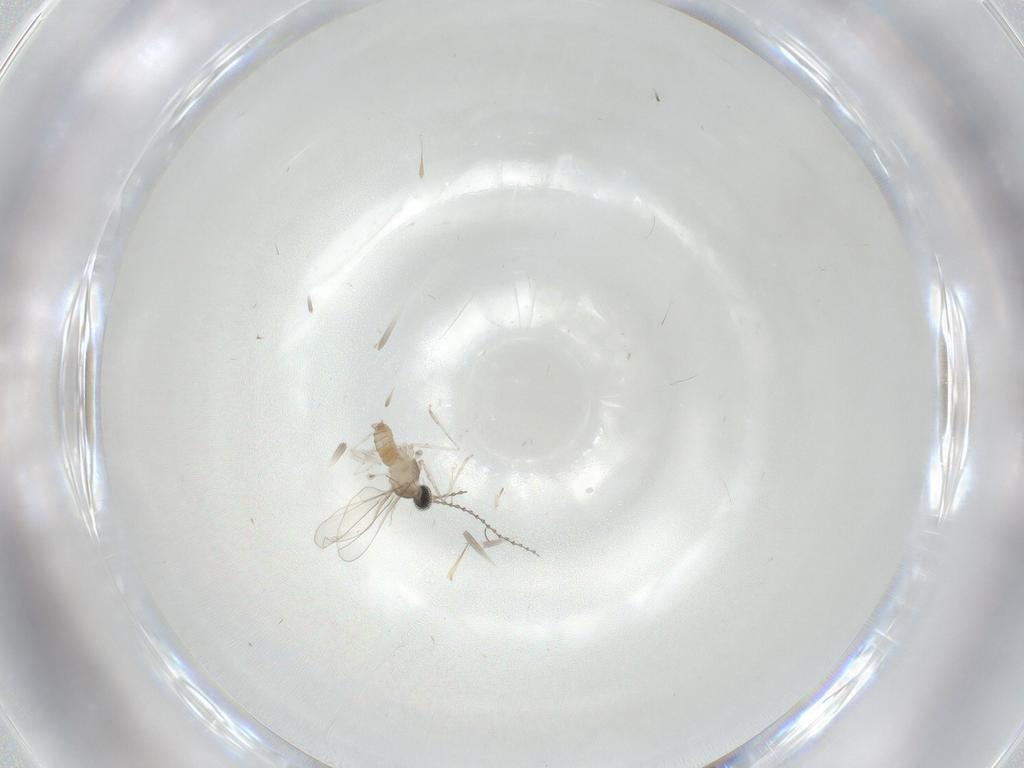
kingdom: Animalia
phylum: Arthropoda
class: Insecta
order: Diptera
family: Cecidomyiidae
